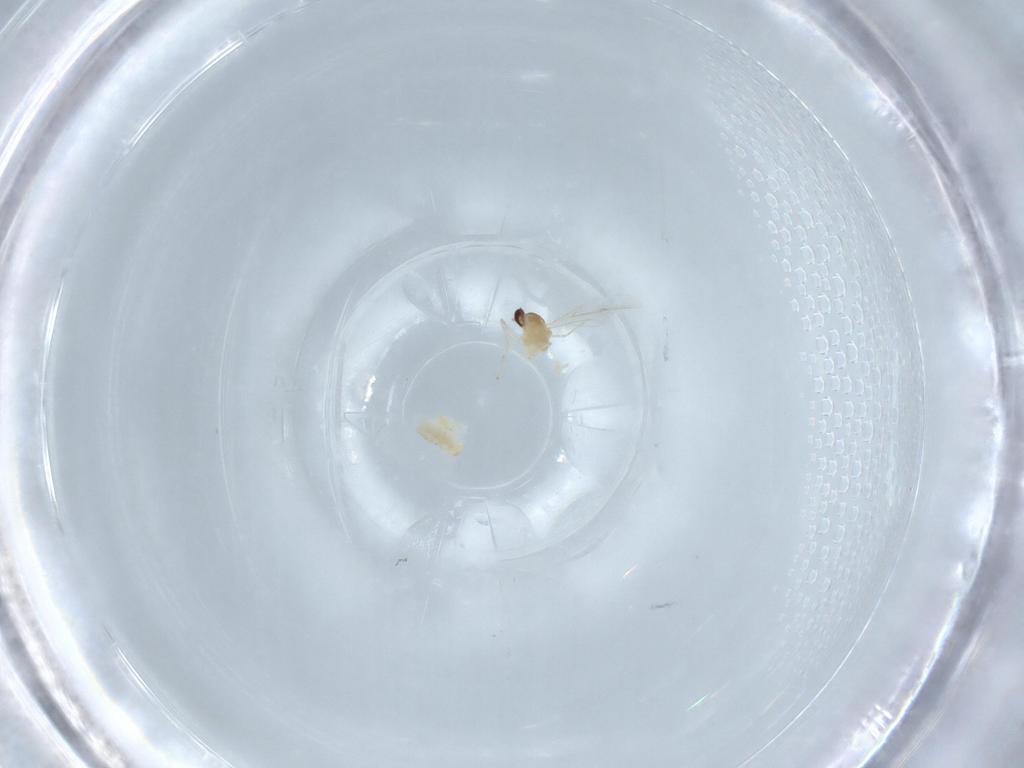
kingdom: Animalia
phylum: Arthropoda
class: Insecta
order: Diptera
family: Cecidomyiidae
